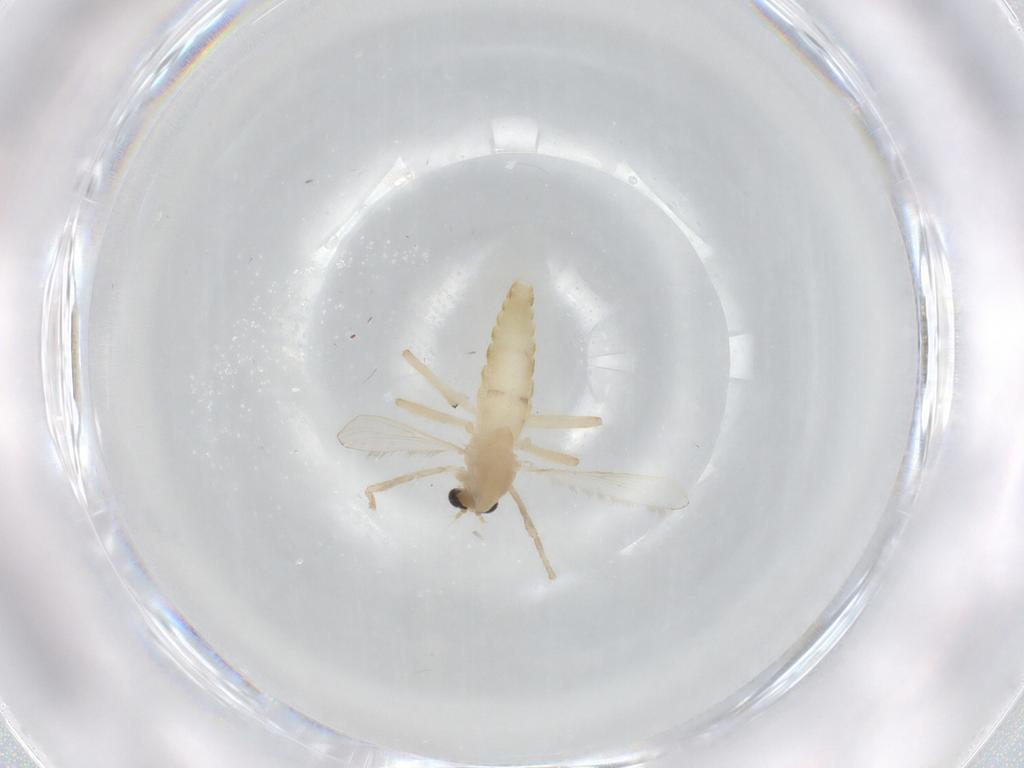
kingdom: Animalia
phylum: Arthropoda
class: Insecta
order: Diptera
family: Chironomidae
